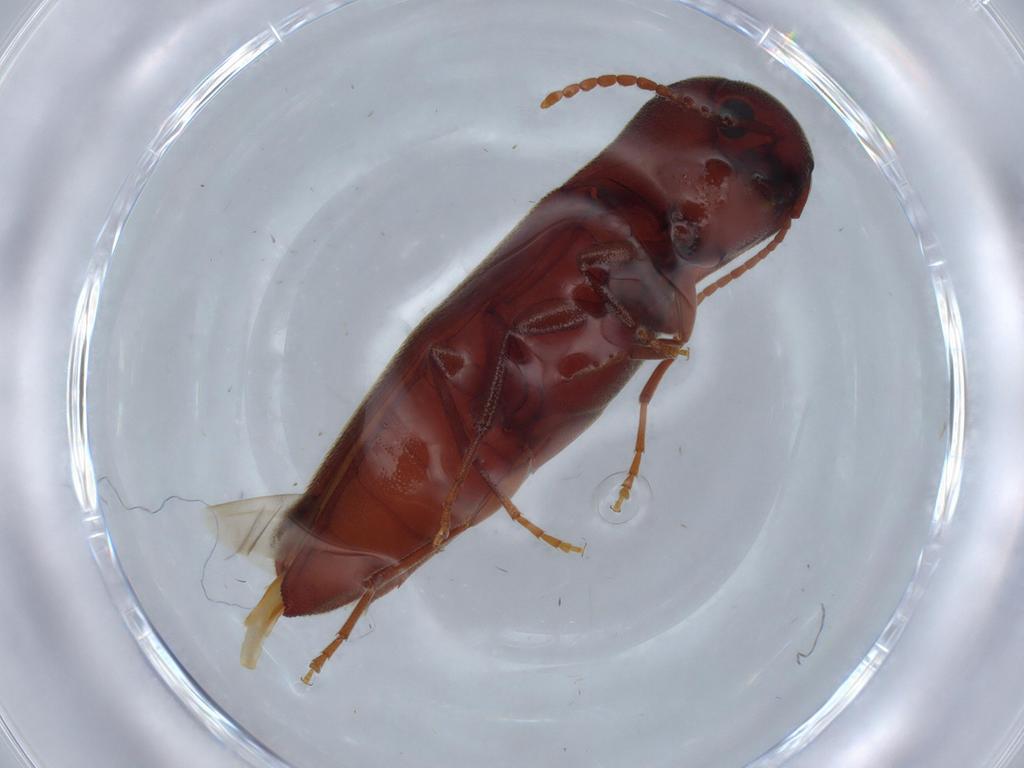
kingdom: Animalia
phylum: Arthropoda
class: Insecta
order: Coleoptera
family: Eucnemidae
